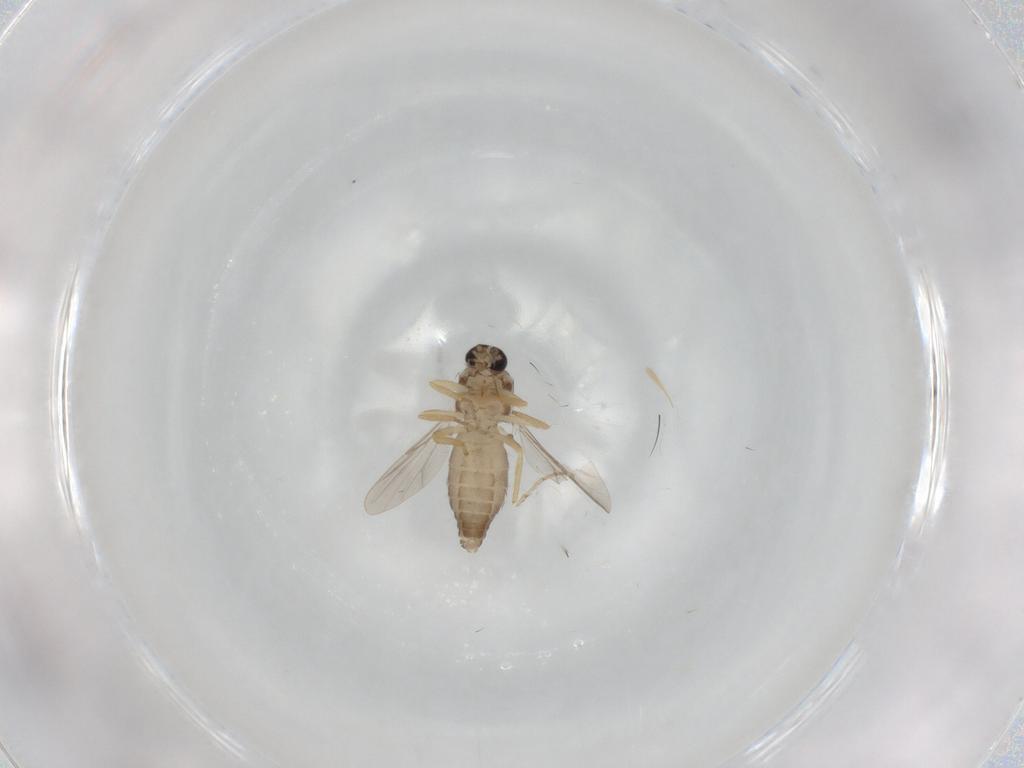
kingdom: Animalia
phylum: Arthropoda
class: Insecta
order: Diptera
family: Ceratopogonidae
